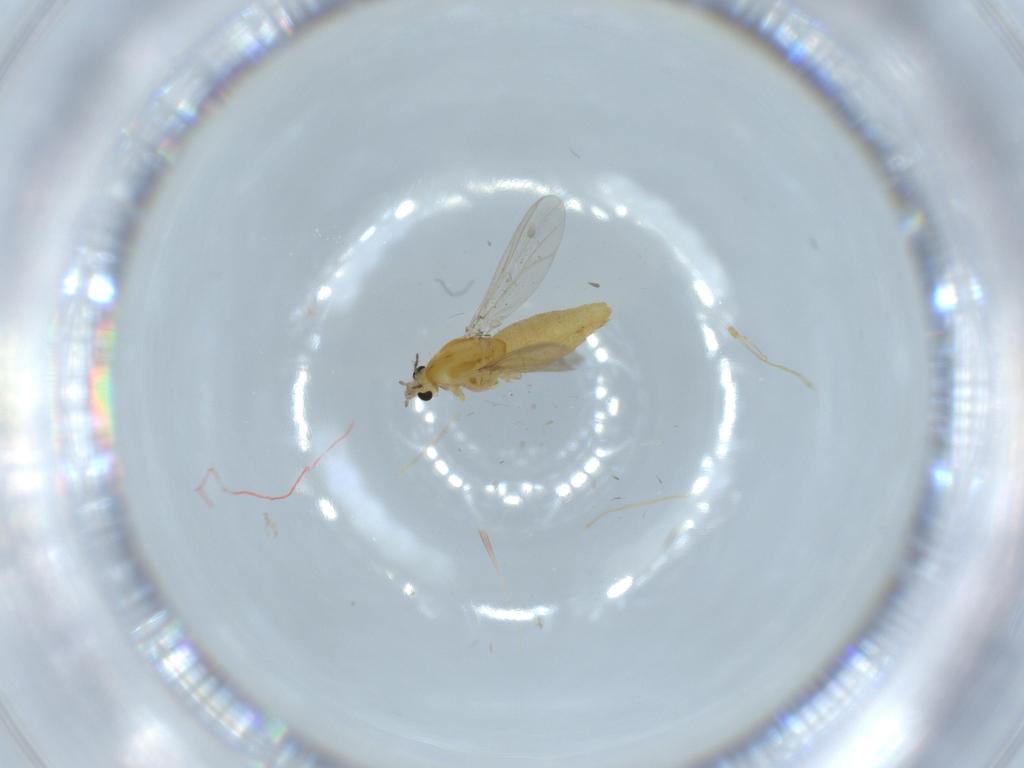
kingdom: Animalia
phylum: Arthropoda
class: Insecta
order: Diptera
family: Chironomidae
